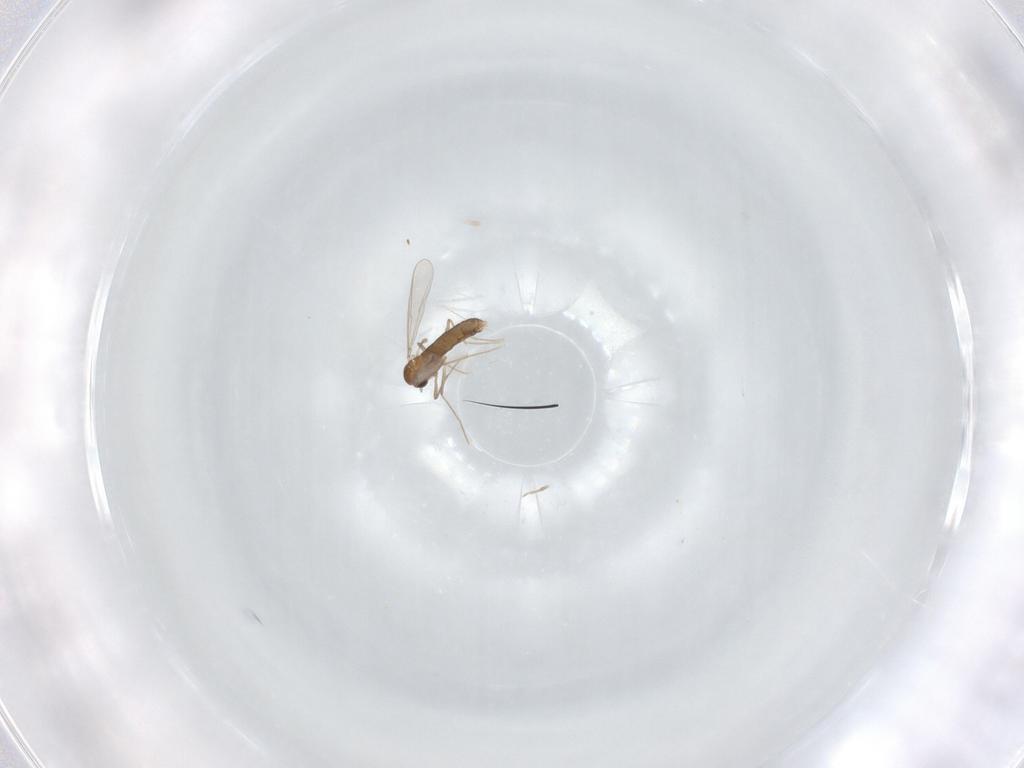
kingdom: Animalia
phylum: Arthropoda
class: Insecta
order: Diptera
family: Chironomidae
